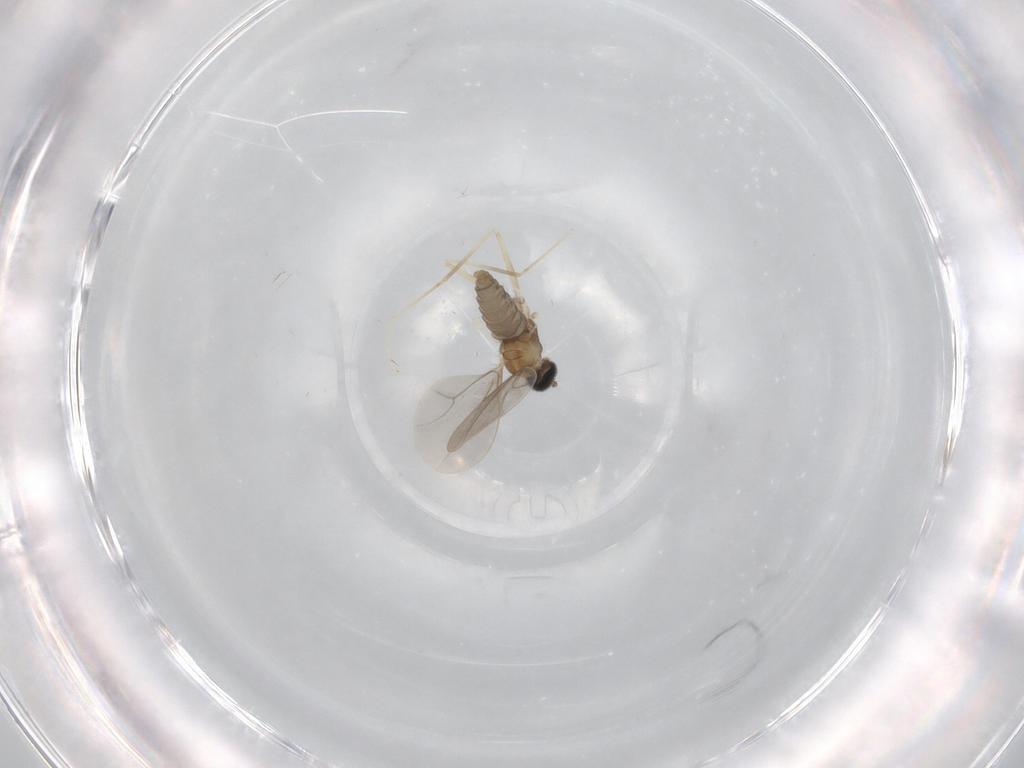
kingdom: Animalia
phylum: Arthropoda
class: Insecta
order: Diptera
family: Cecidomyiidae
